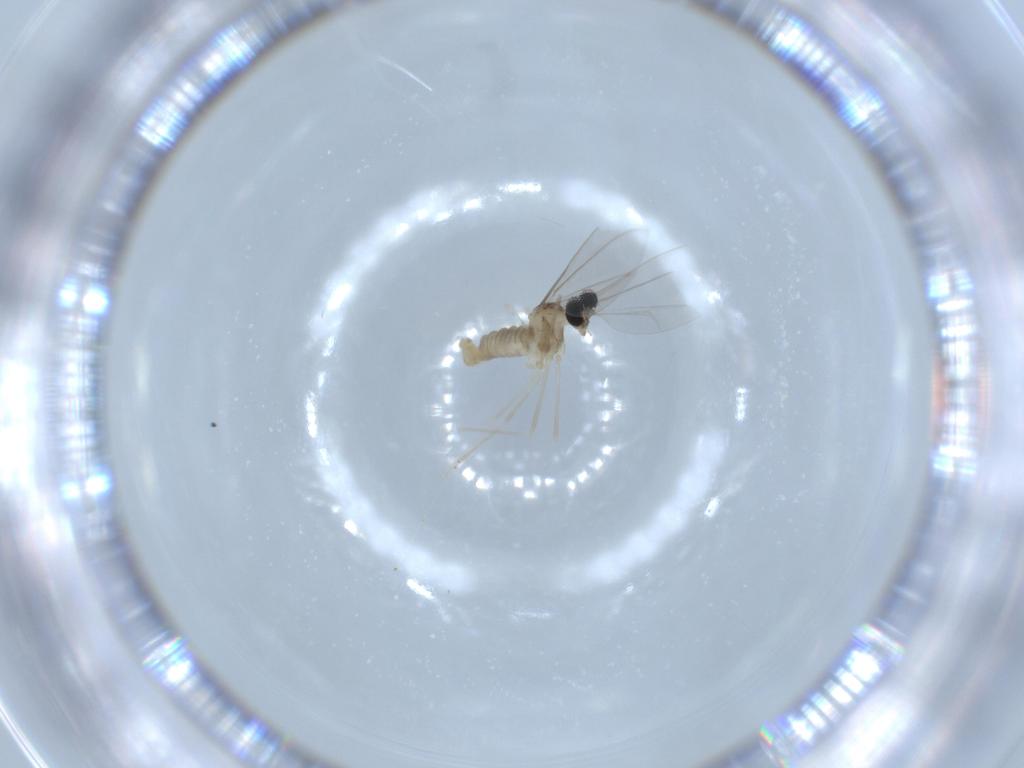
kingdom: Animalia
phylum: Arthropoda
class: Insecta
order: Diptera
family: Cecidomyiidae
